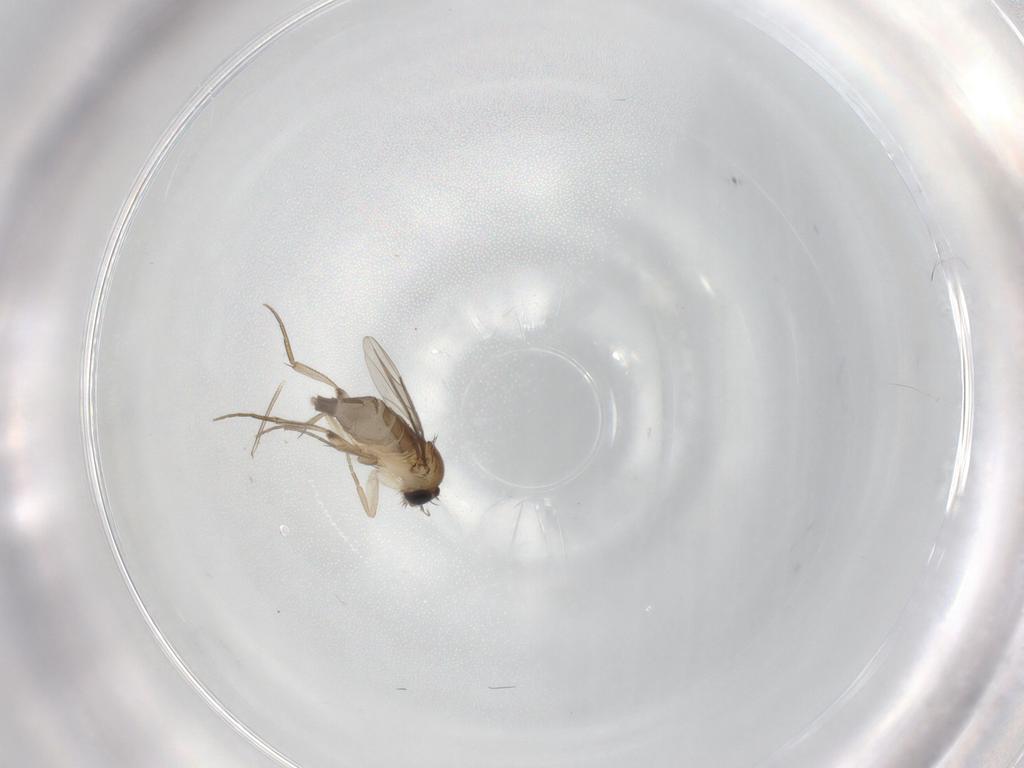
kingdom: Animalia
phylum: Arthropoda
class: Insecta
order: Diptera
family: Phoridae
